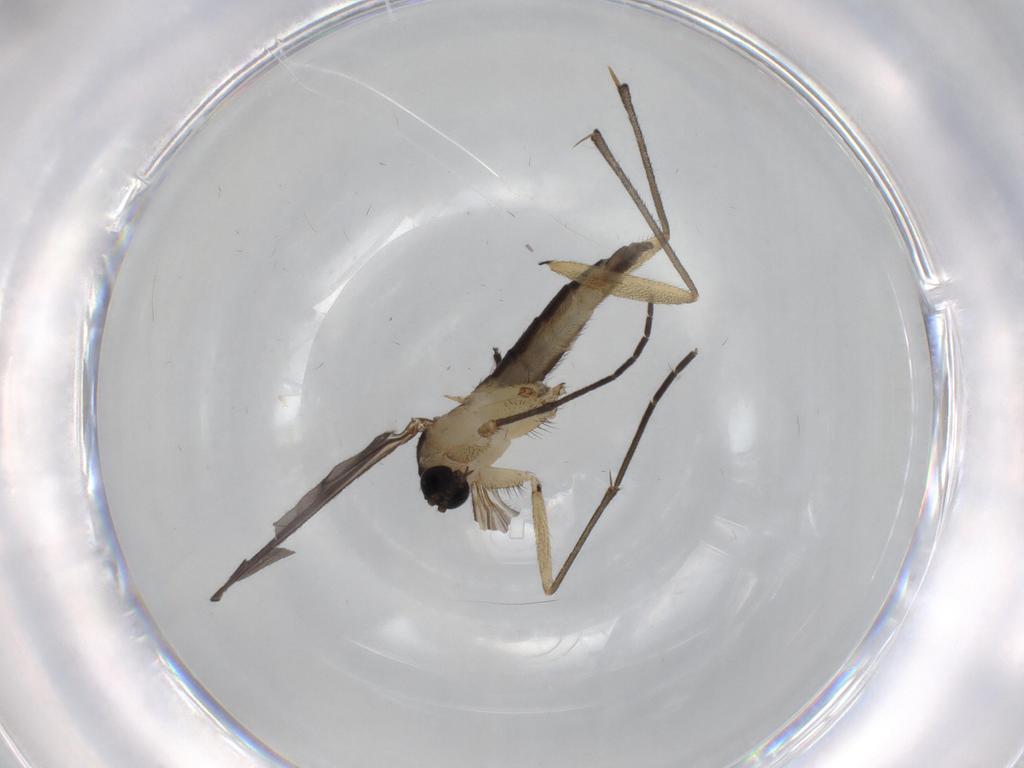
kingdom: Animalia
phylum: Arthropoda
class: Insecta
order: Diptera
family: Sciaridae
